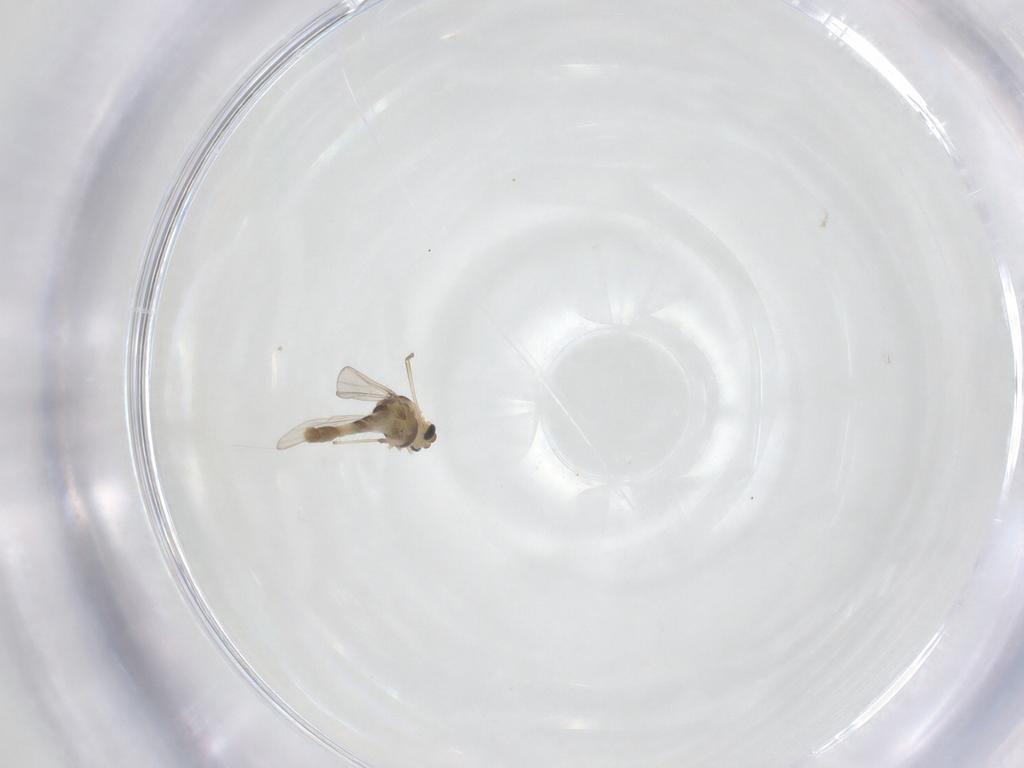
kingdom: Animalia
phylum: Arthropoda
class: Insecta
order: Diptera
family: Chironomidae
